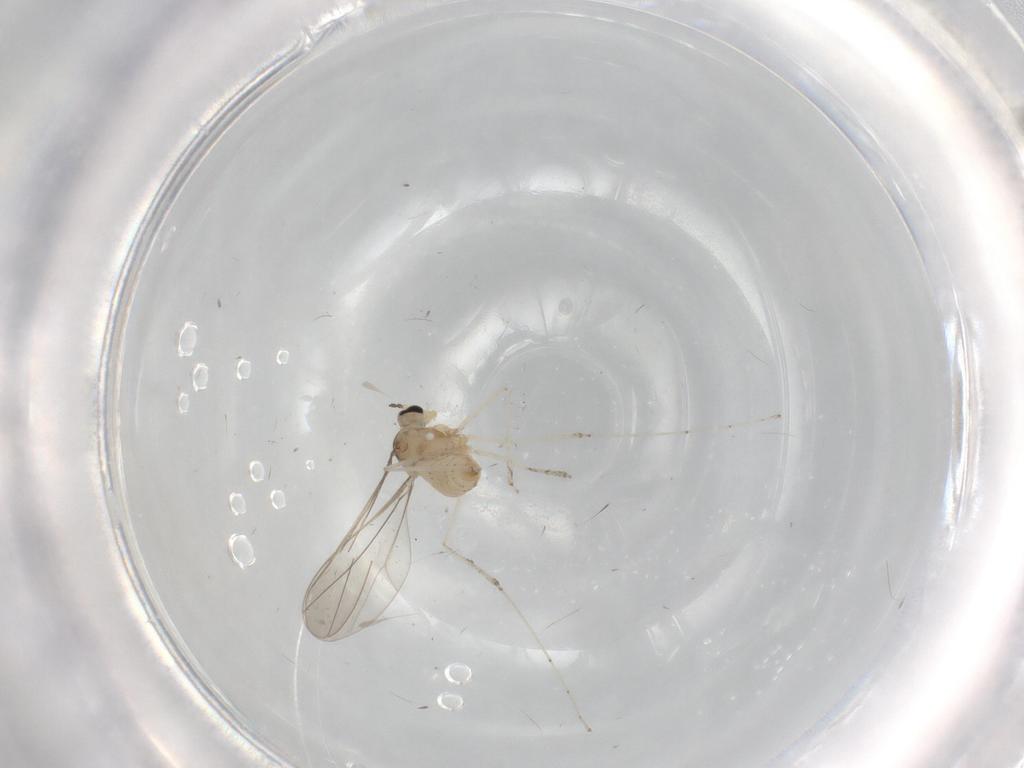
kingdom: Animalia
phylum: Arthropoda
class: Insecta
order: Diptera
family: Cecidomyiidae
